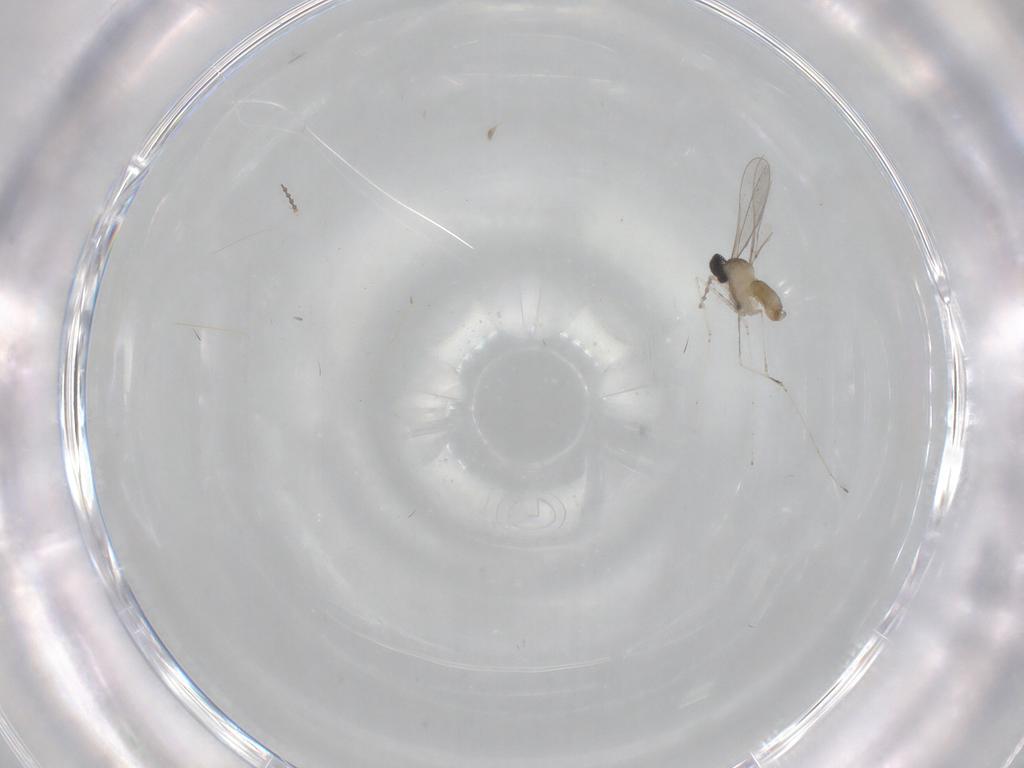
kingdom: Animalia
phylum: Arthropoda
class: Insecta
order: Diptera
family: Cecidomyiidae
